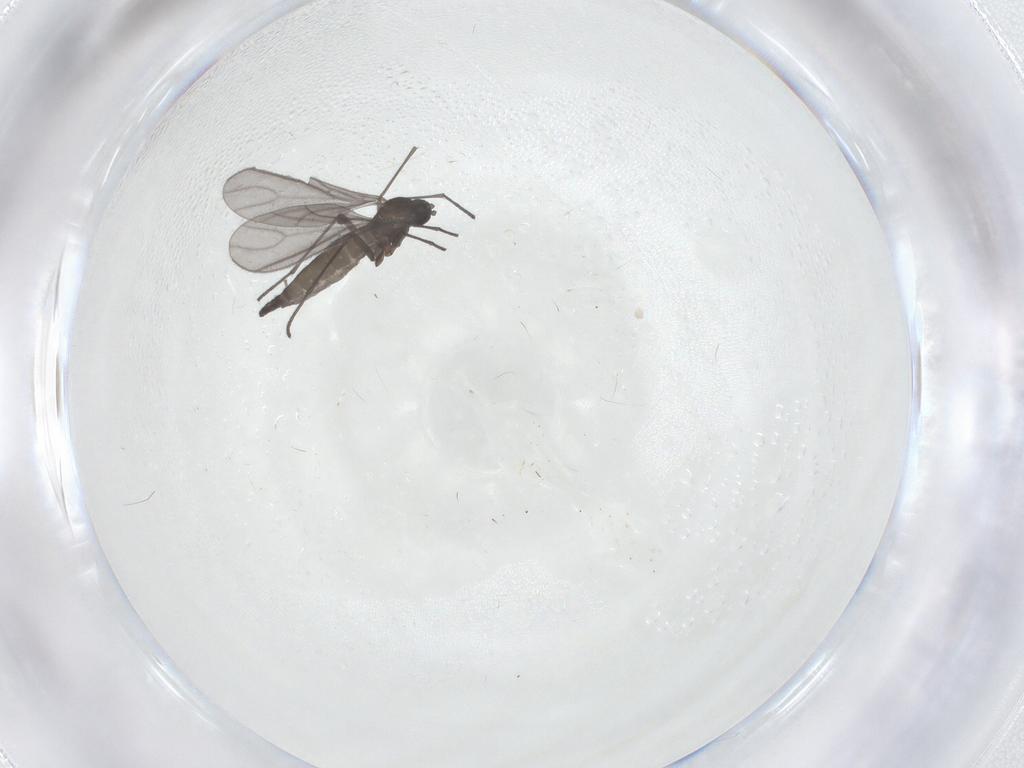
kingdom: Animalia
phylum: Arthropoda
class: Insecta
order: Diptera
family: Sciaridae
